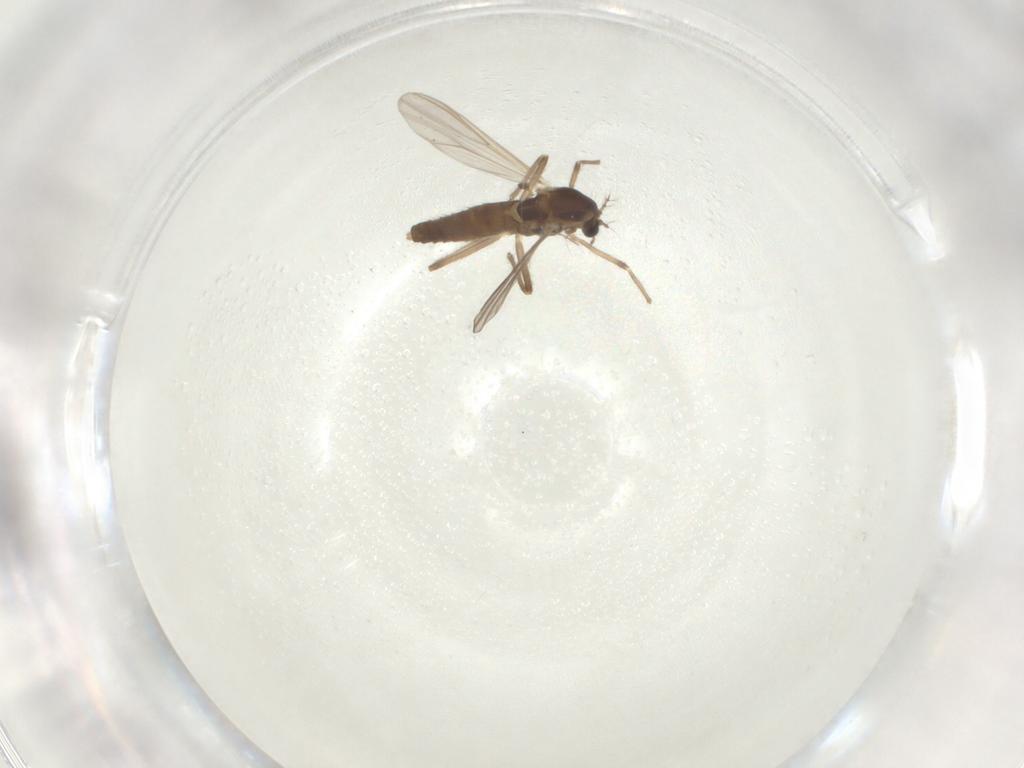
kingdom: Animalia
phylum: Arthropoda
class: Insecta
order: Diptera
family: Chironomidae
